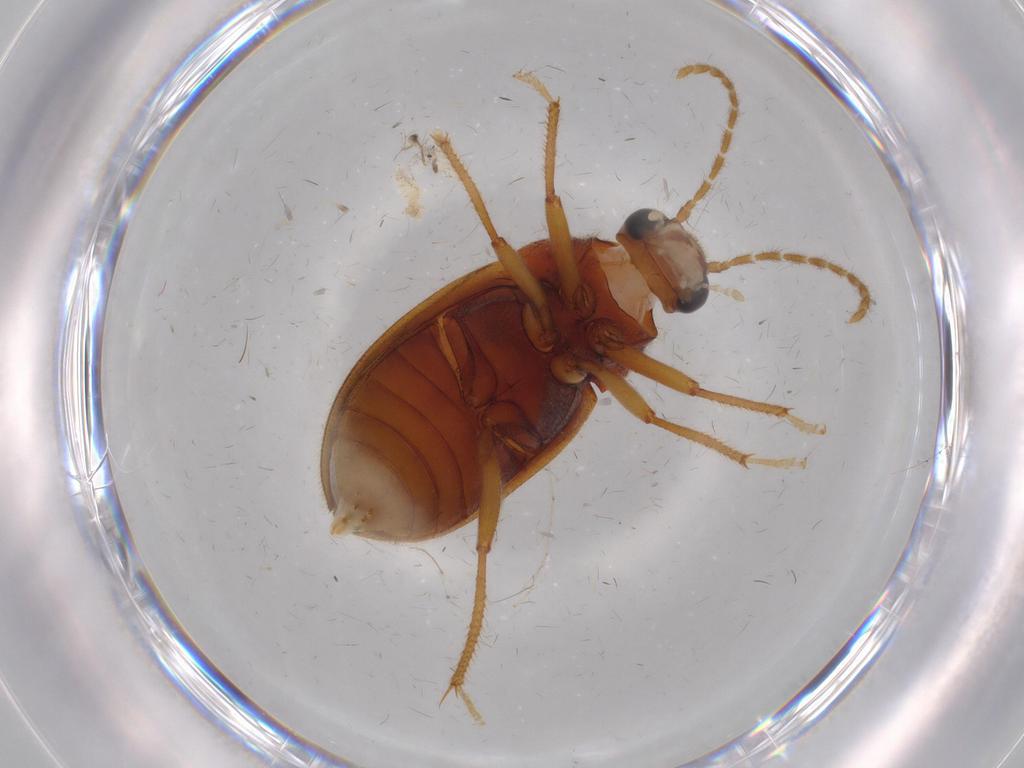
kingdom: Animalia
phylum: Arthropoda
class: Insecta
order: Coleoptera
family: Ptilodactylidae
